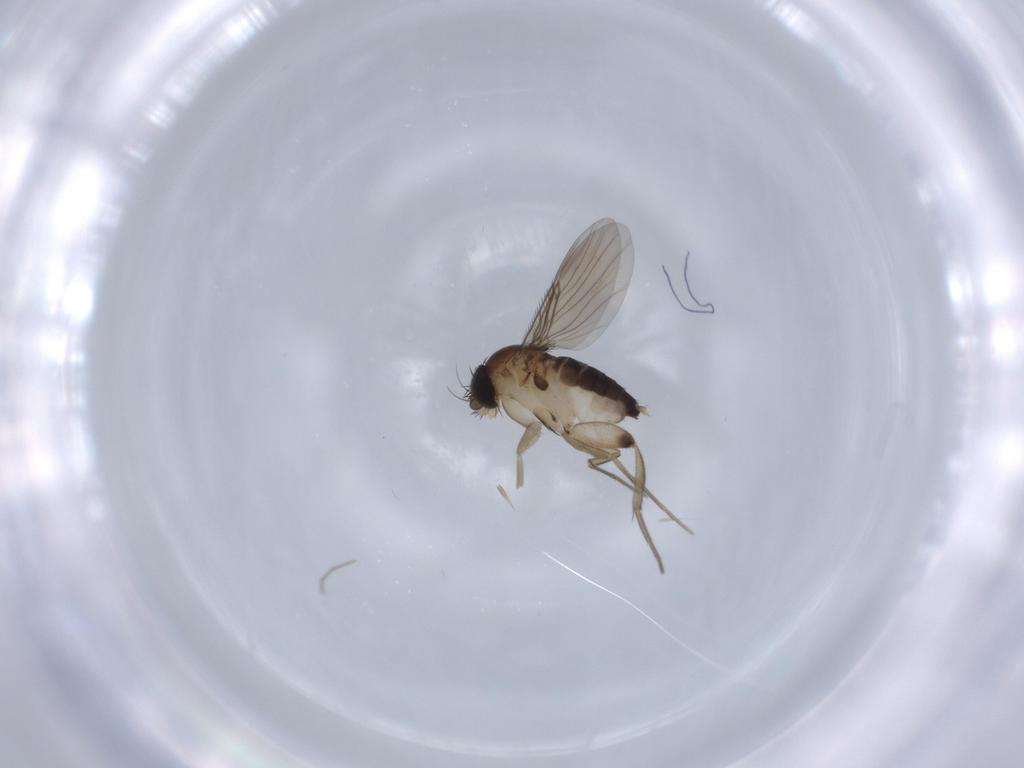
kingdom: Animalia
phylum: Arthropoda
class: Insecta
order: Diptera
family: Phoridae
